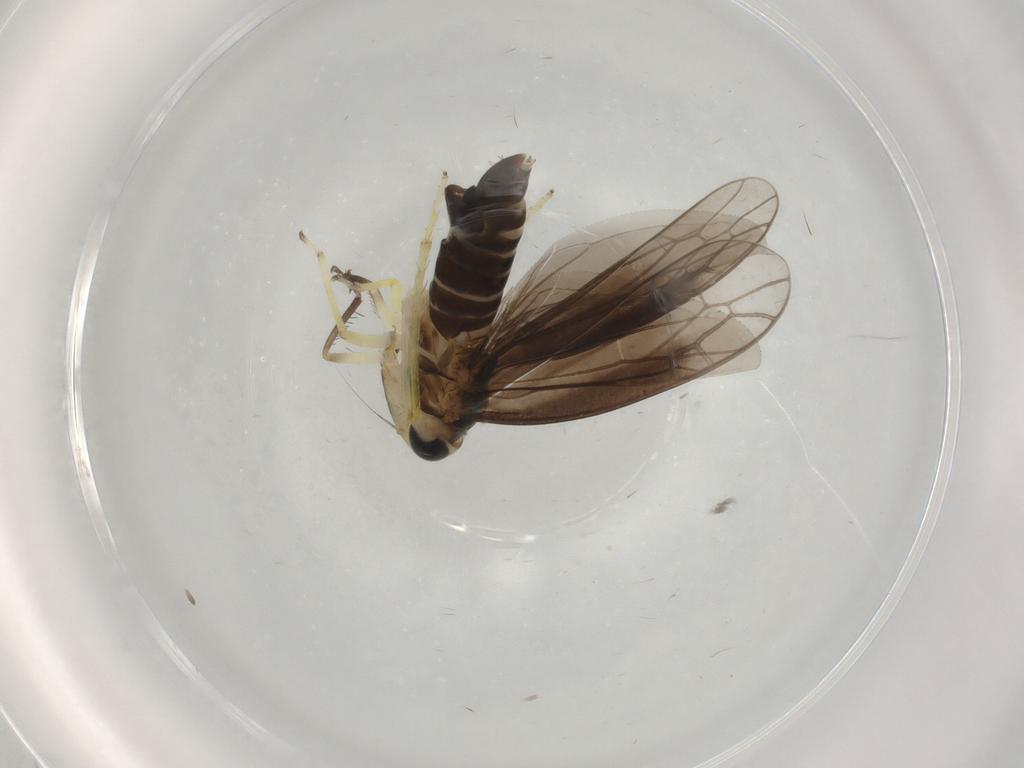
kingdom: Animalia
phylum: Arthropoda
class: Insecta
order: Hemiptera
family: Cicadellidae
